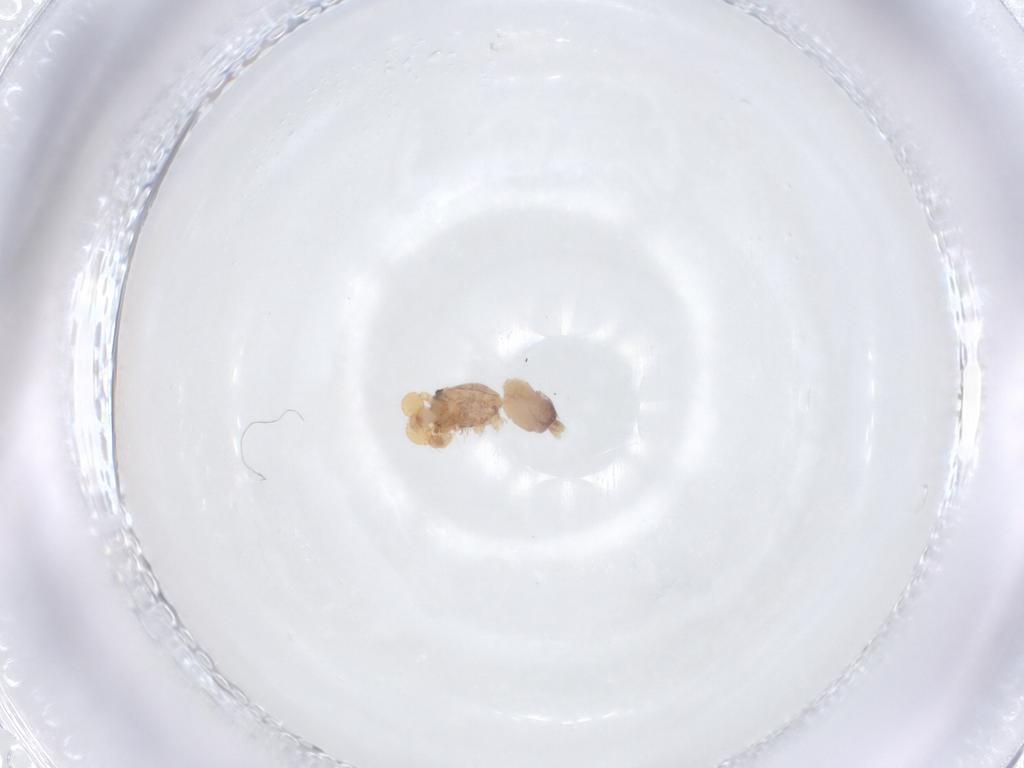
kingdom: Animalia
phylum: Arthropoda
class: Arachnida
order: Araneae
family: Idiopidae
